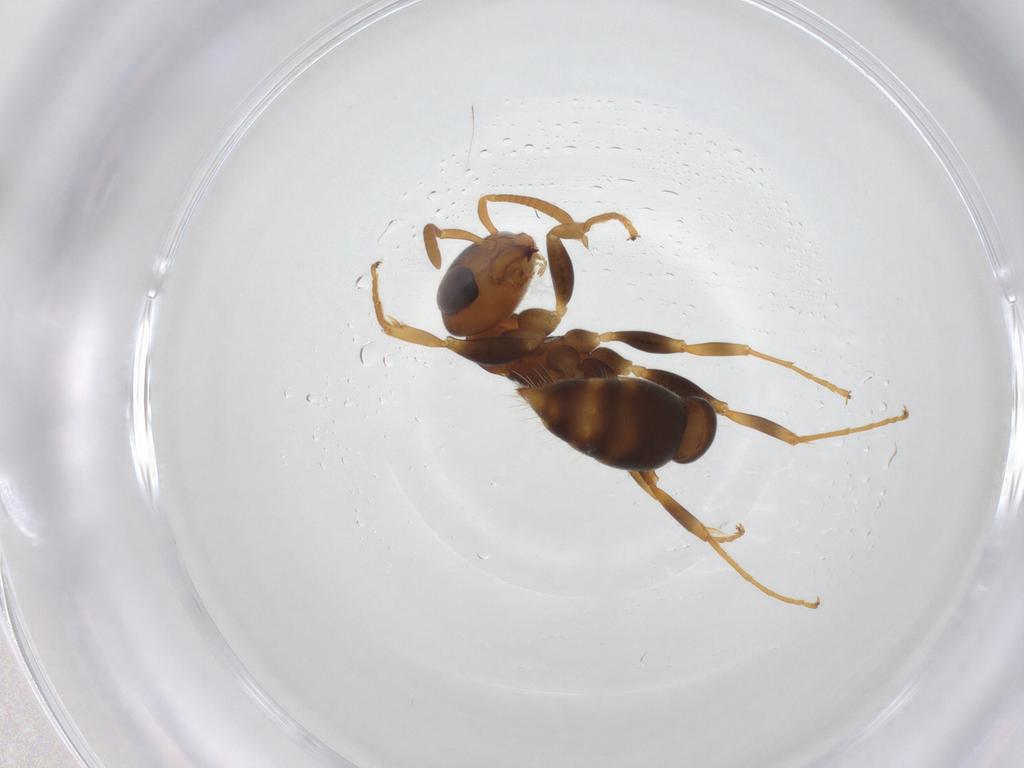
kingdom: Animalia
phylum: Arthropoda
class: Insecta
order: Hymenoptera
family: Formicidae
